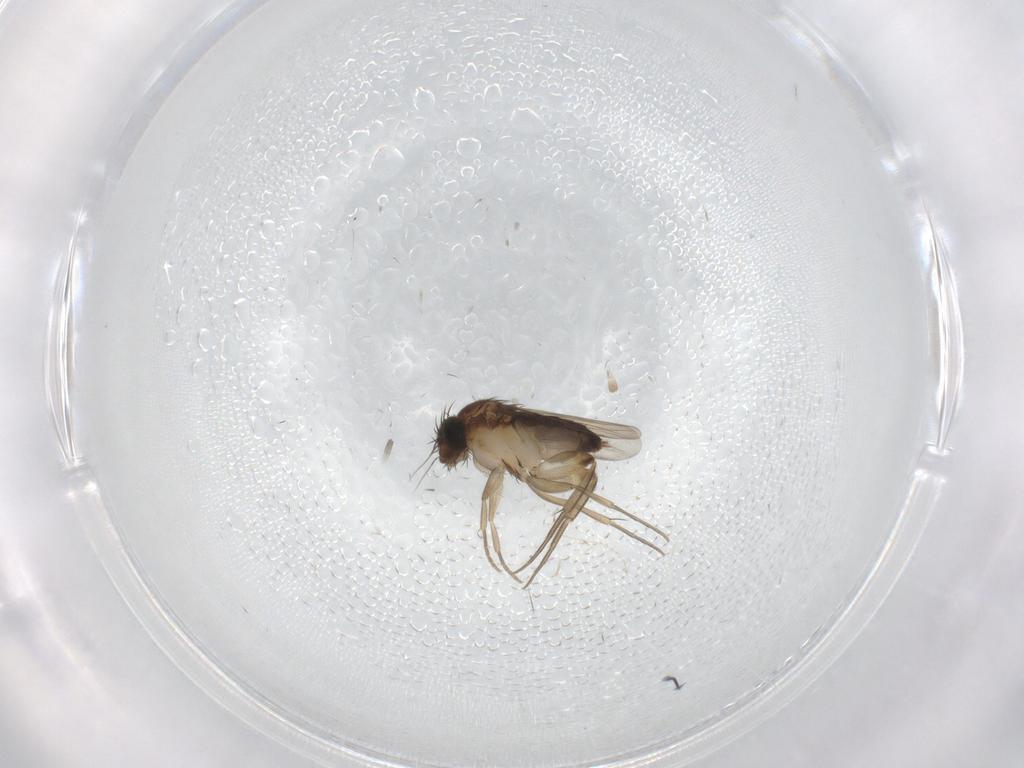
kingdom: Animalia
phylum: Arthropoda
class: Insecta
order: Diptera
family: Phoridae
